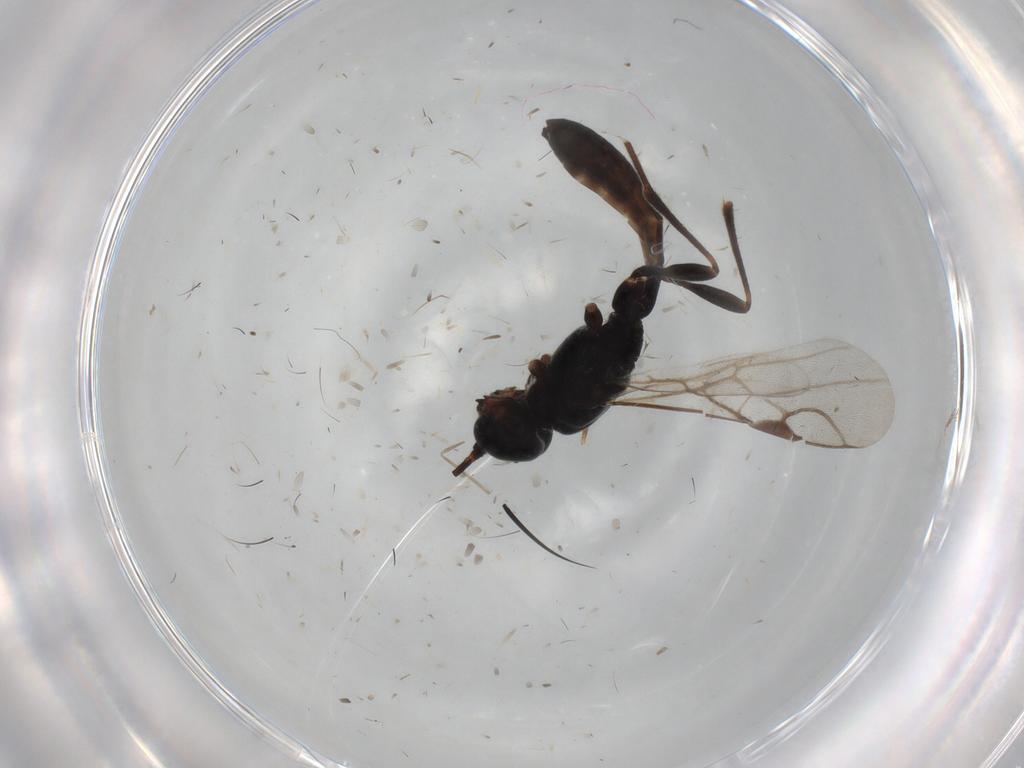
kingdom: Animalia
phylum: Arthropoda
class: Insecta
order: Hymenoptera
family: Braconidae
